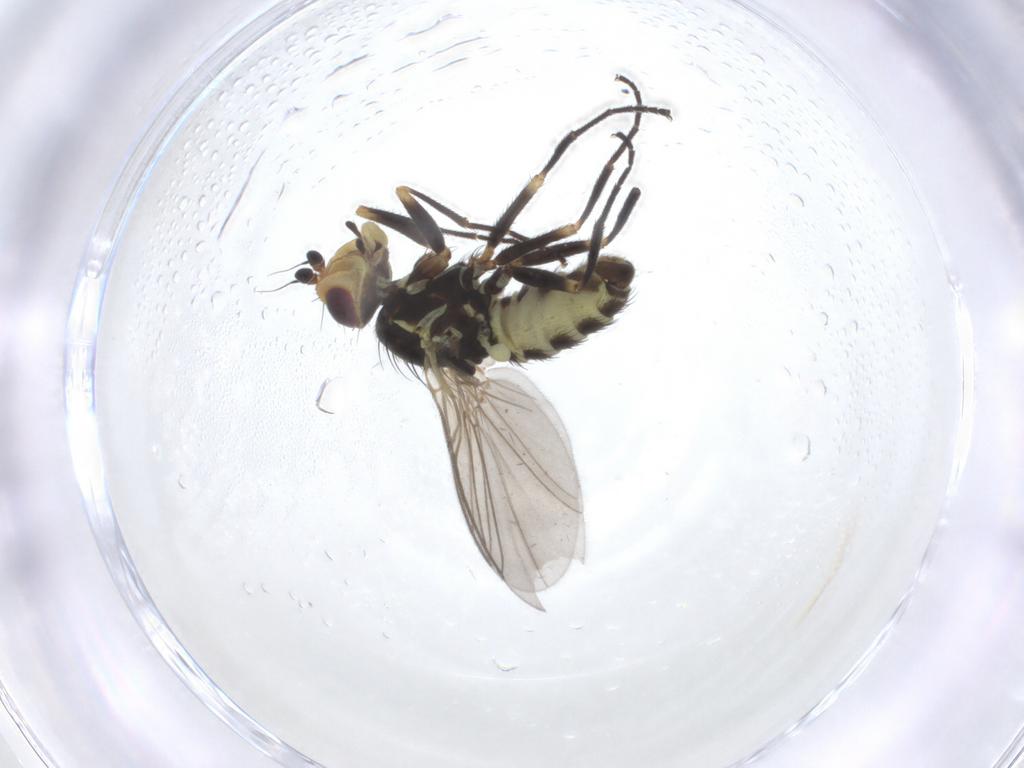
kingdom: Animalia
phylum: Arthropoda
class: Insecta
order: Diptera
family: Agromyzidae
